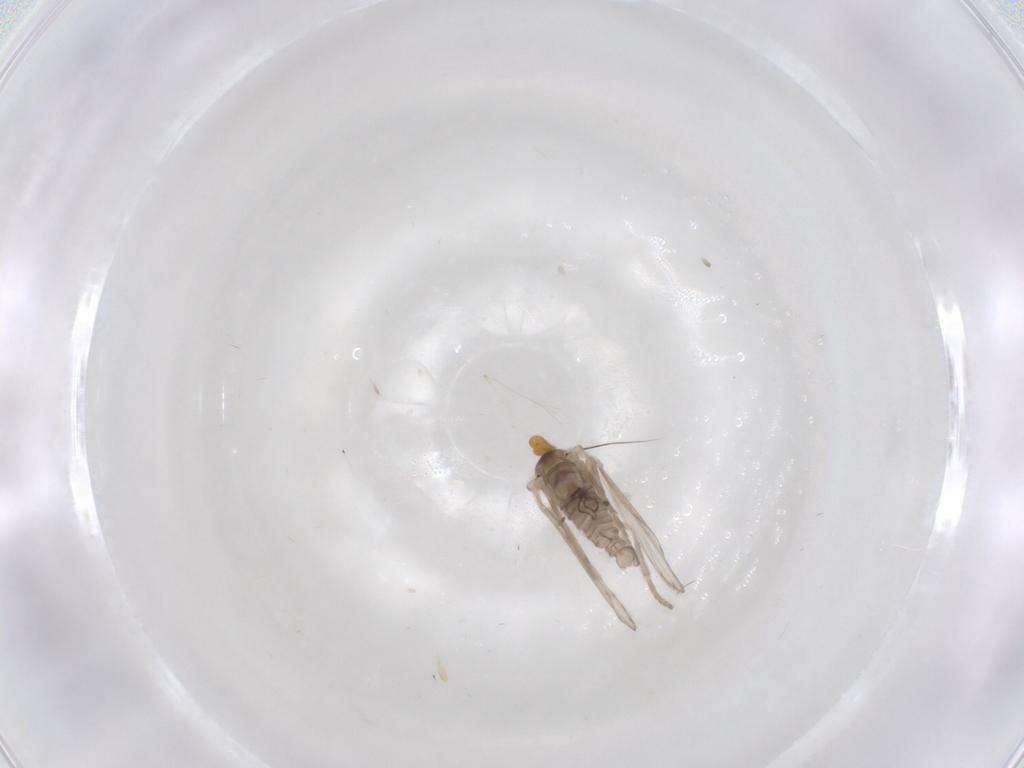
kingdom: Animalia
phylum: Arthropoda
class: Insecta
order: Diptera
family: Psychodidae
